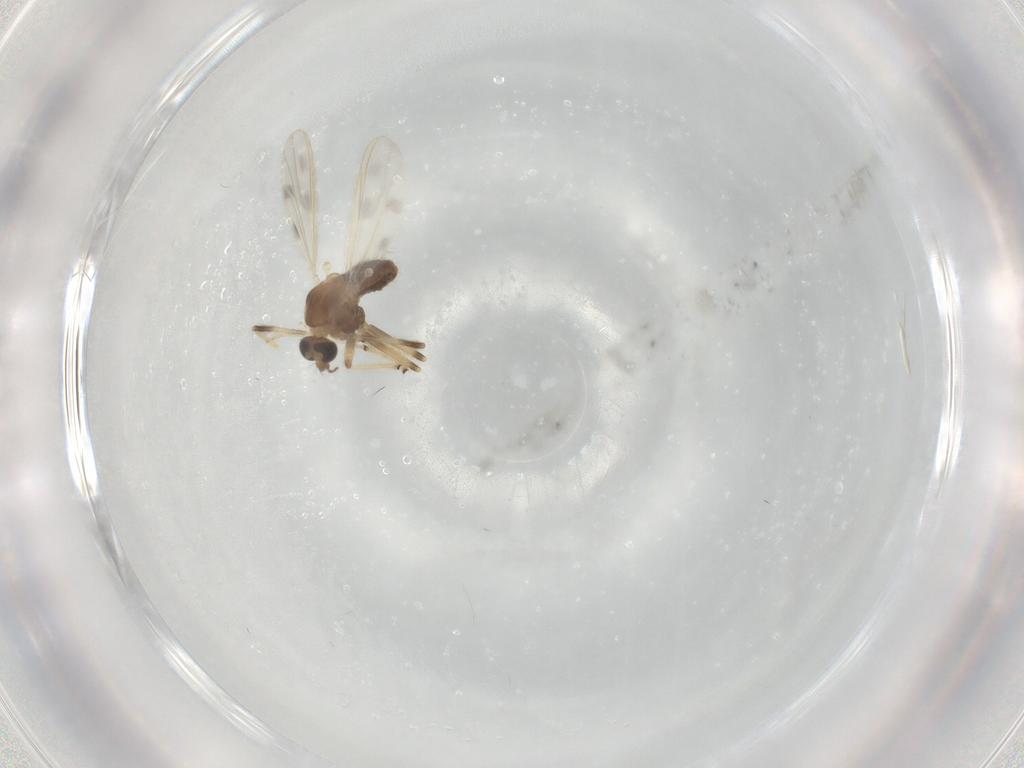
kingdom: Animalia
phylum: Arthropoda
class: Insecta
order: Diptera
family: Chironomidae
